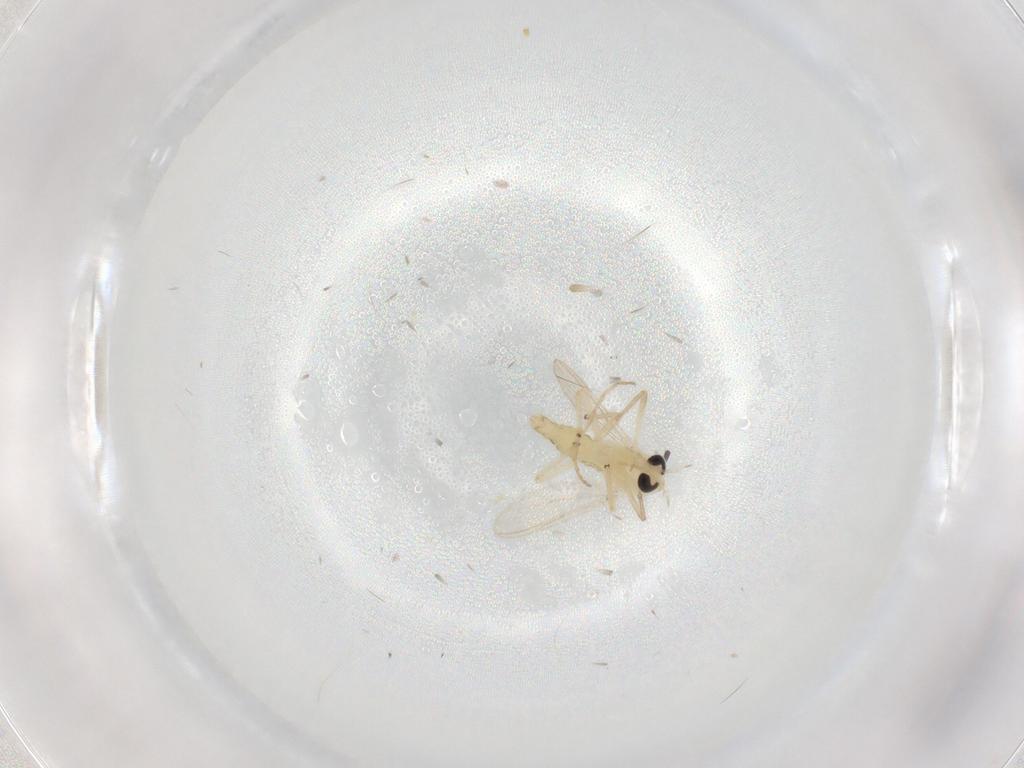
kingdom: Animalia
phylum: Arthropoda
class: Insecta
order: Diptera
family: Chironomidae
